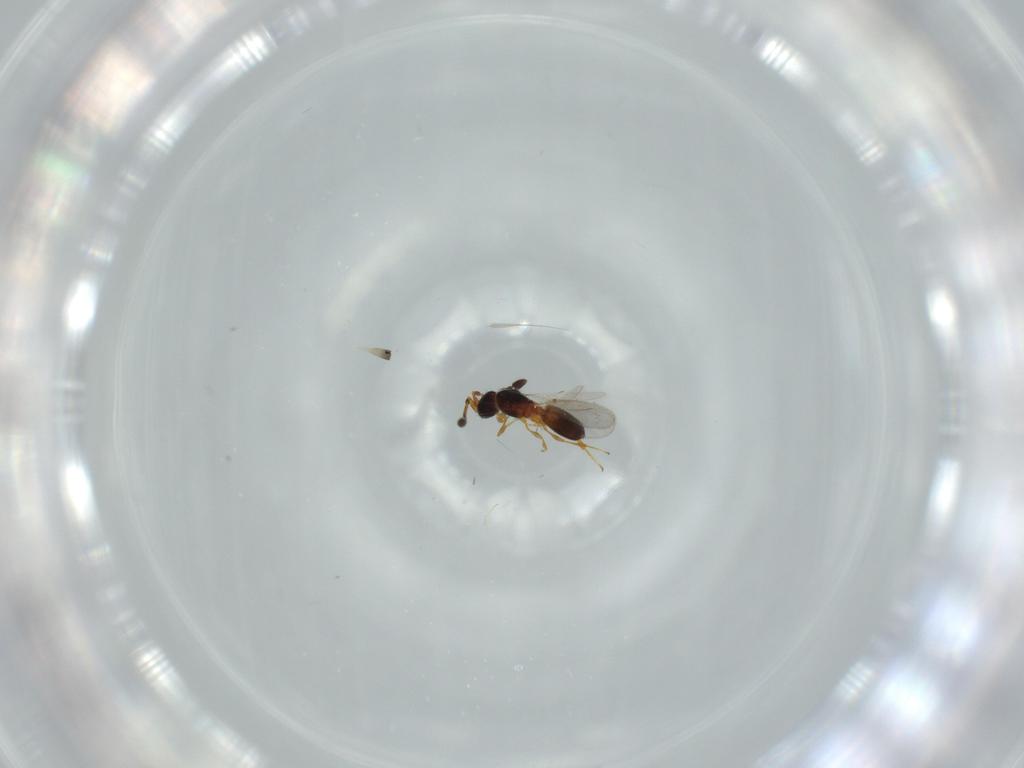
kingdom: Animalia
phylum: Arthropoda
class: Insecta
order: Hymenoptera
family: Diapriidae
